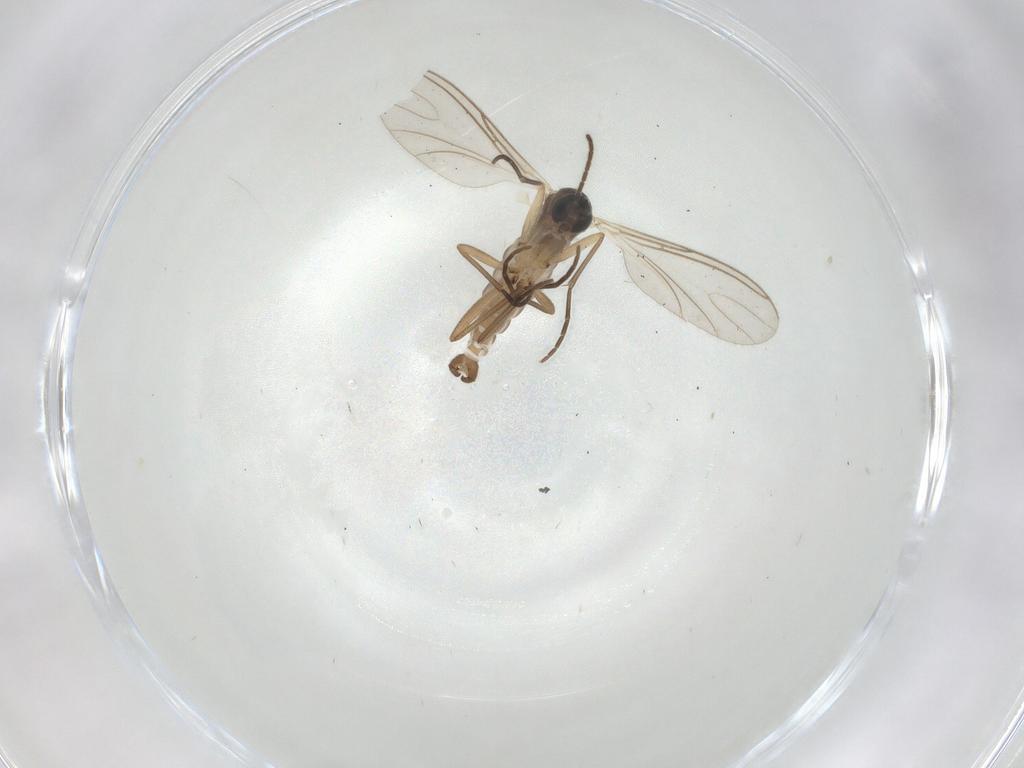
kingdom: Animalia
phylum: Arthropoda
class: Insecta
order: Diptera
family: Sciaridae
